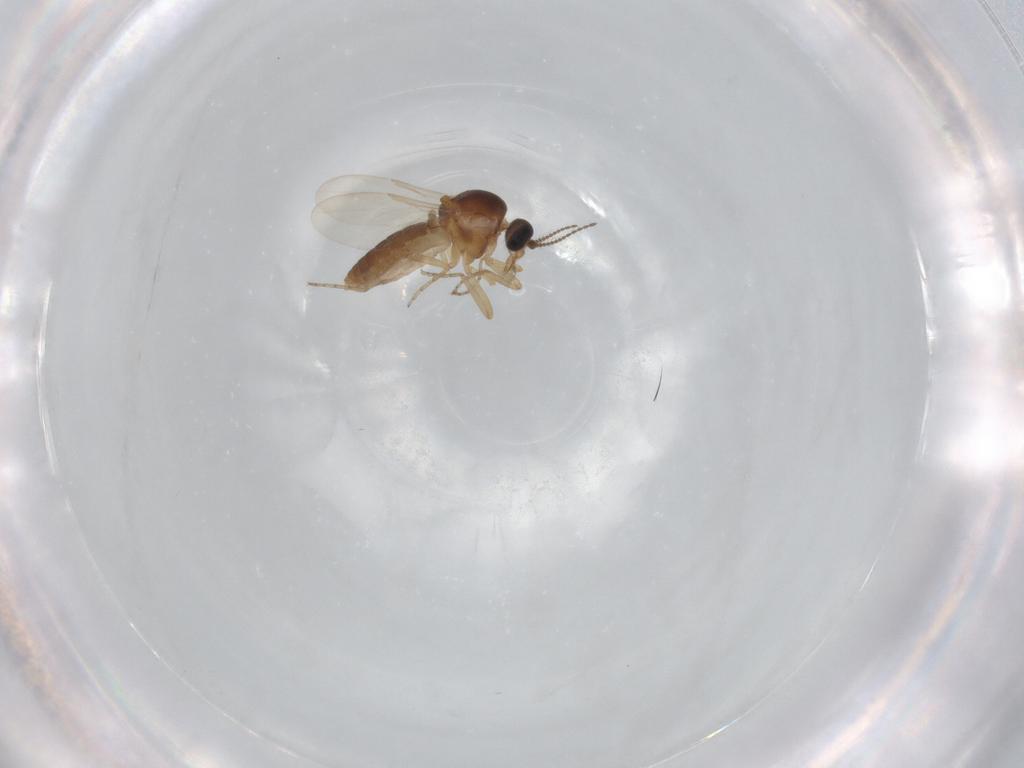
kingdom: Animalia
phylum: Arthropoda
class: Insecta
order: Diptera
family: Ceratopogonidae
